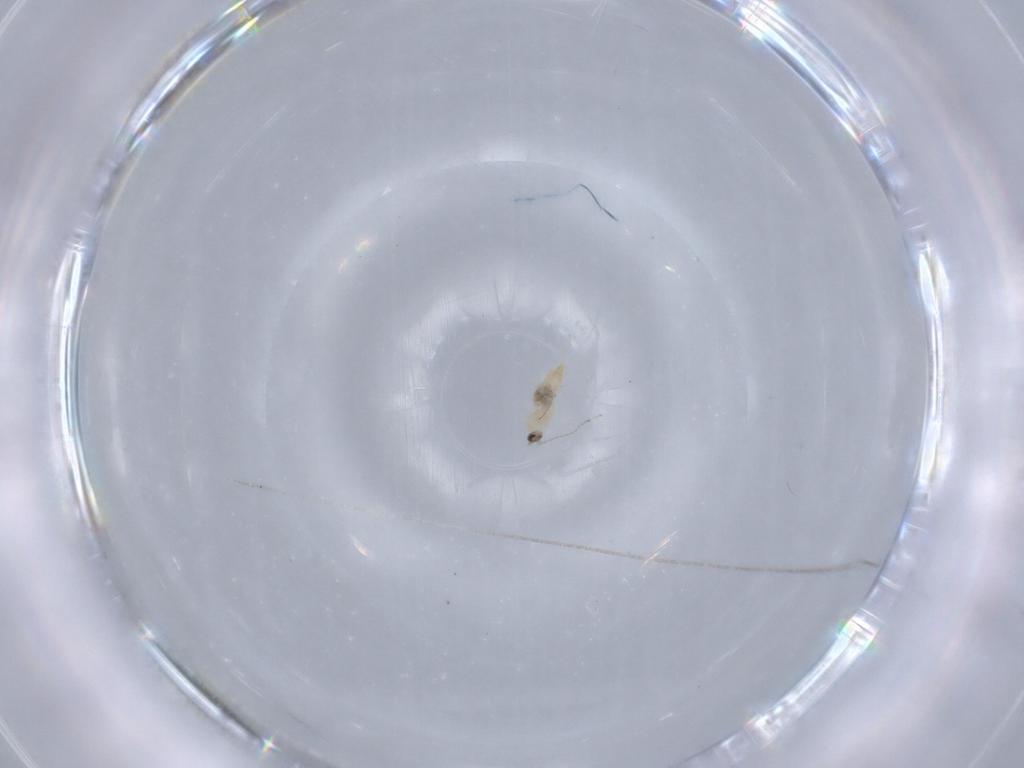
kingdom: Animalia
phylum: Arthropoda
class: Insecta
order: Diptera
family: Cecidomyiidae
